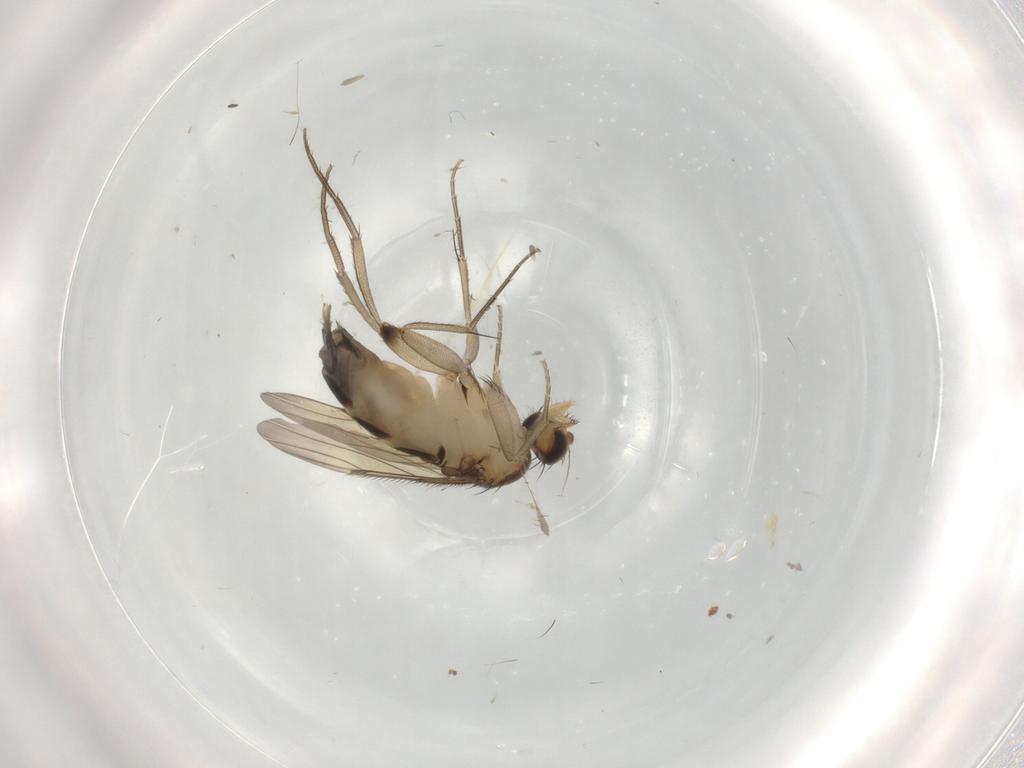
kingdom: Animalia
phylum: Arthropoda
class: Insecta
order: Diptera
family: Phoridae
